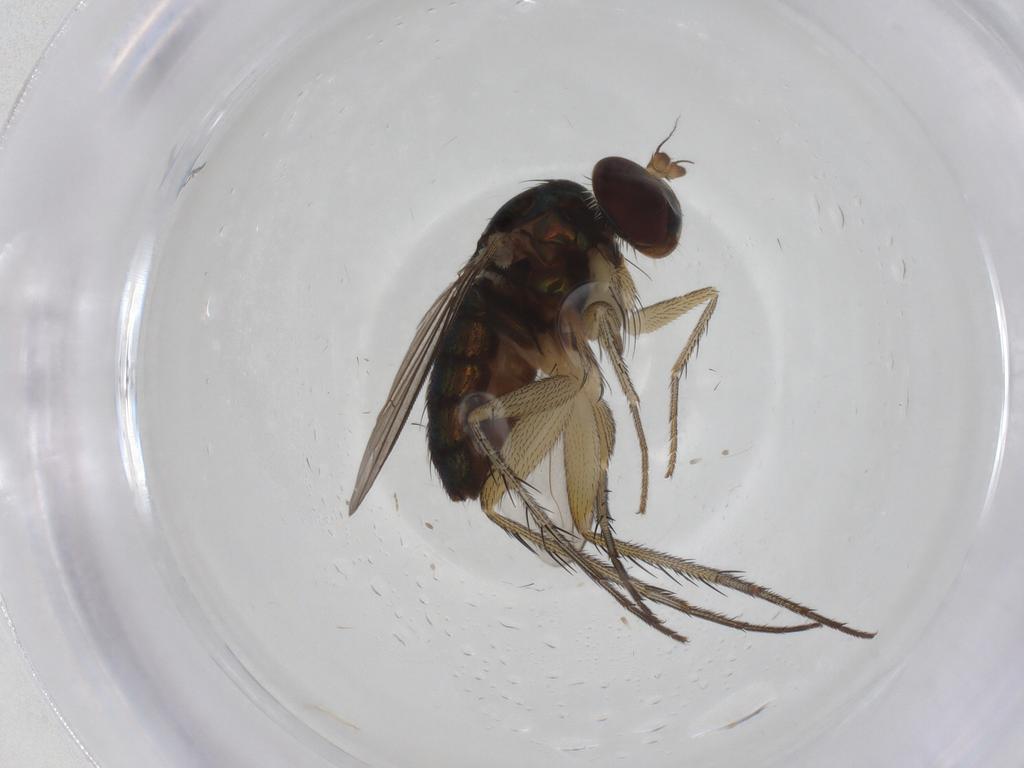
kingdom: Animalia
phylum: Arthropoda
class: Insecta
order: Diptera
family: Dolichopodidae
